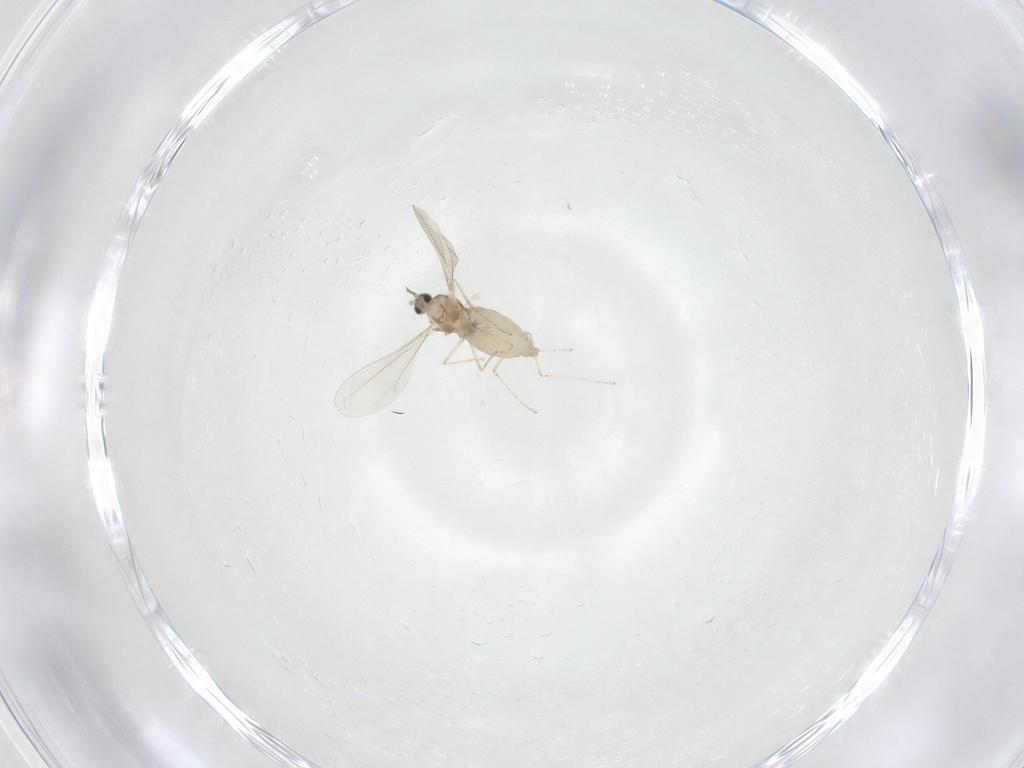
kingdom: Animalia
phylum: Arthropoda
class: Insecta
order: Diptera
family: Cecidomyiidae
